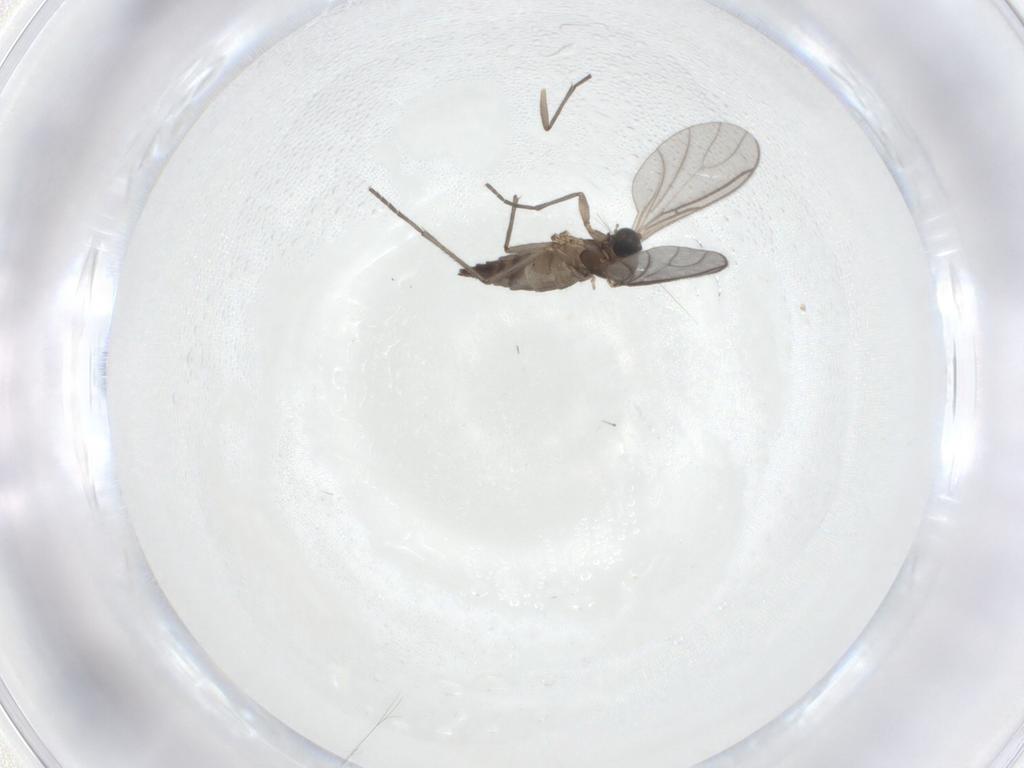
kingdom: Animalia
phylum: Arthropoda
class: Insecta
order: Diptera
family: Sciaridae
